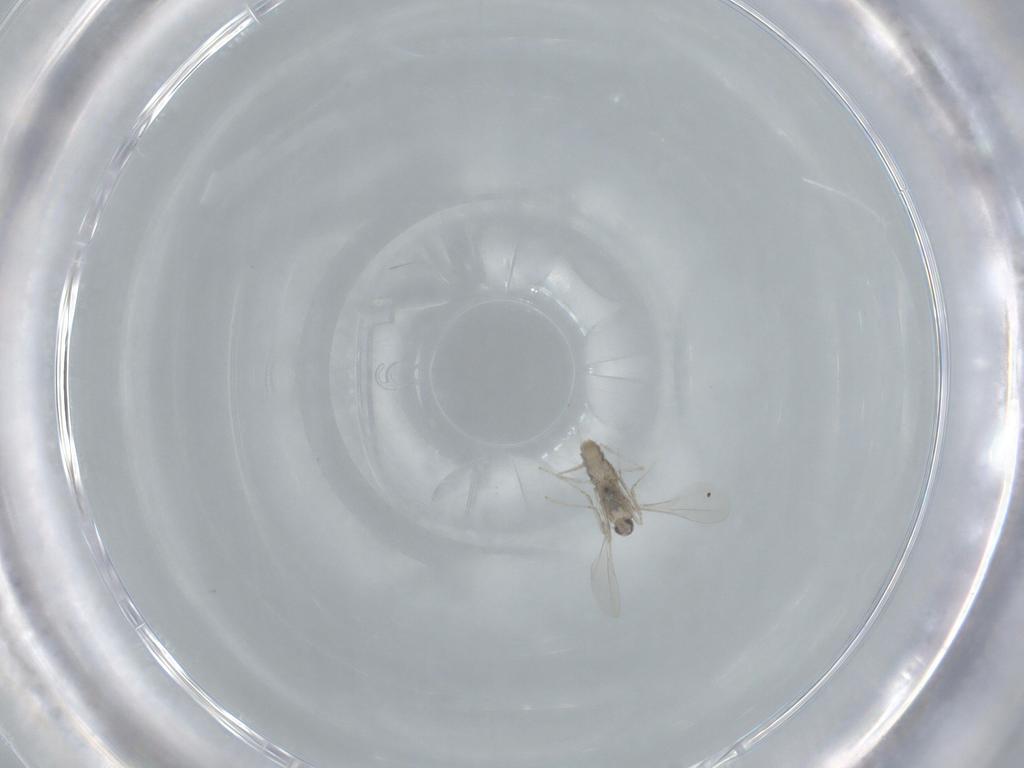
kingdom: Animalia
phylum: Arthropoda
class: Insecta
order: Diptera
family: Cecidomyiidae
